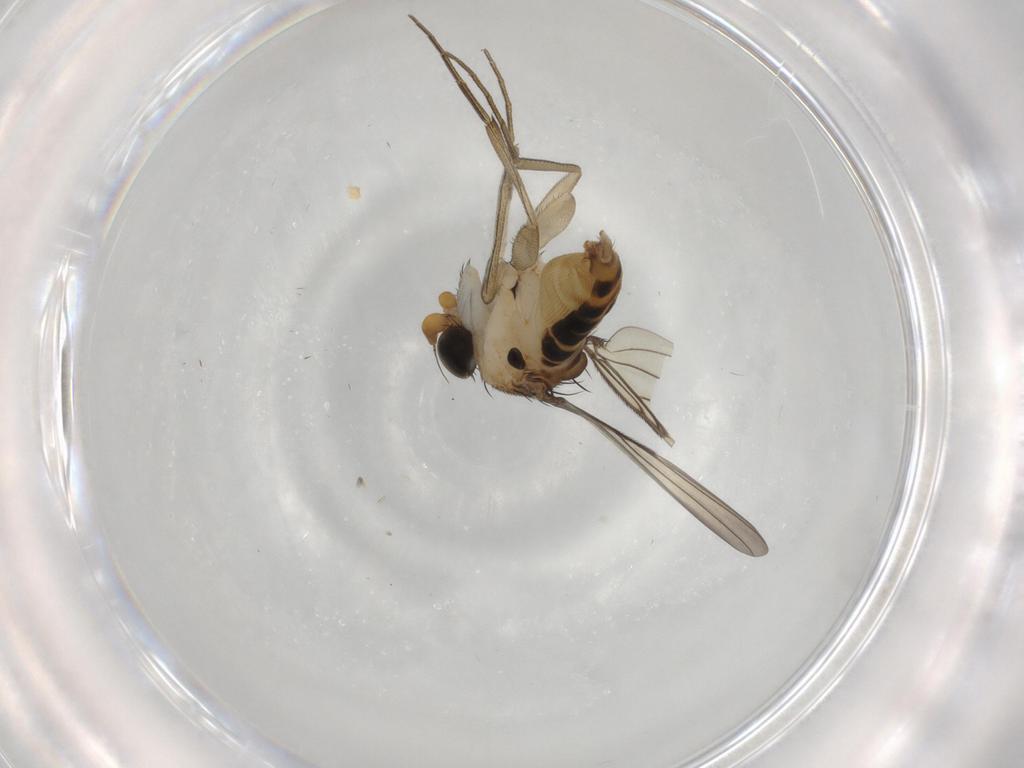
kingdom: Animalia
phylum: Arthropoda
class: Insecta
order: Diptera
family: Phoridae
